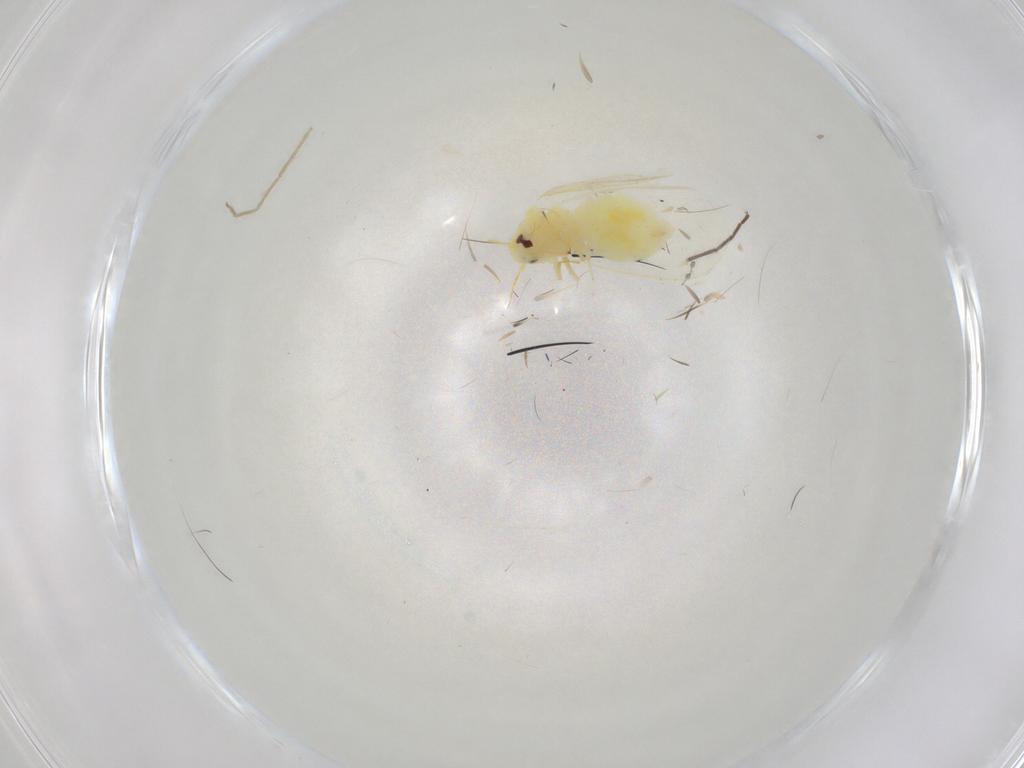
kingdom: Animalia
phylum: Arthropoda
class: Insecta
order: Hemiptera
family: Aleyrodidae
